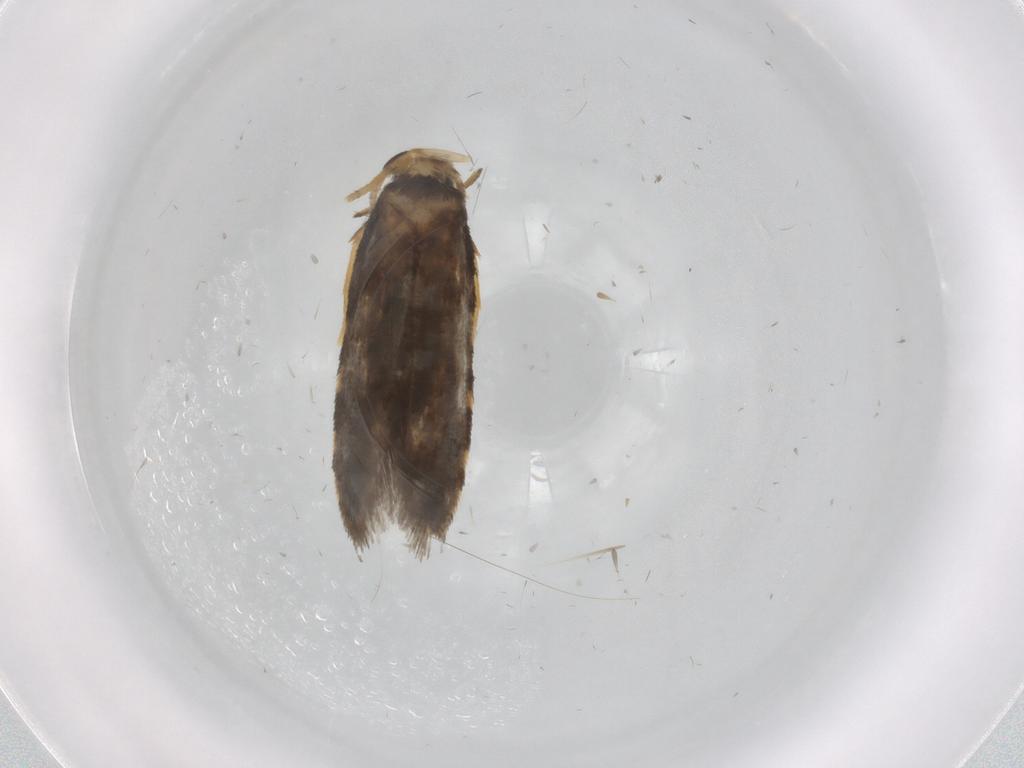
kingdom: Animalia
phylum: Arthropoda
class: Insecta
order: Lepidoptera
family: Psychidae
